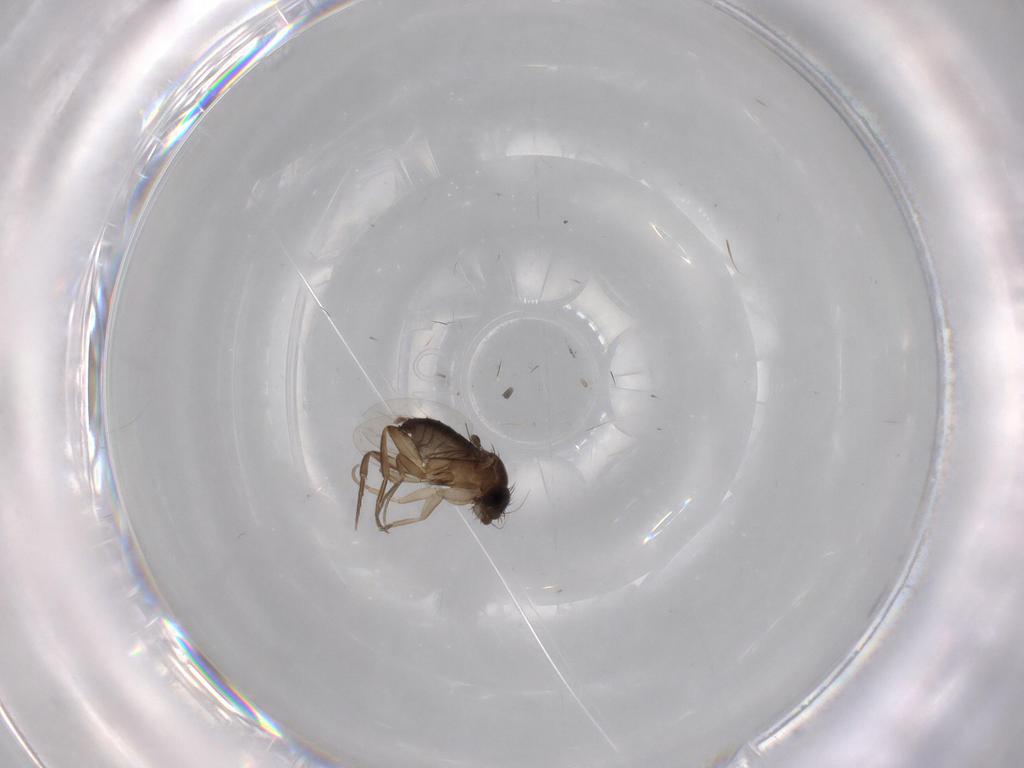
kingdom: Animalia
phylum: Arthropoda
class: Insecta
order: Diptera
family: Phoridae
